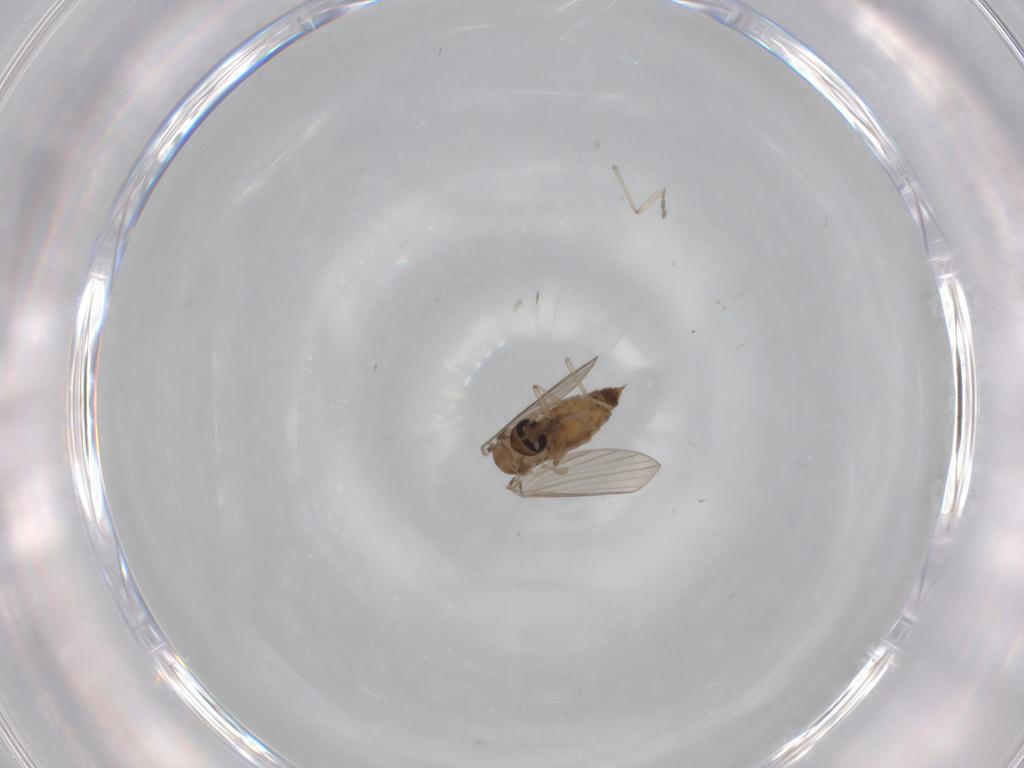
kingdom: Animalia
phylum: Arthropoda
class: Insecta
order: Diptera
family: Psychodidae
